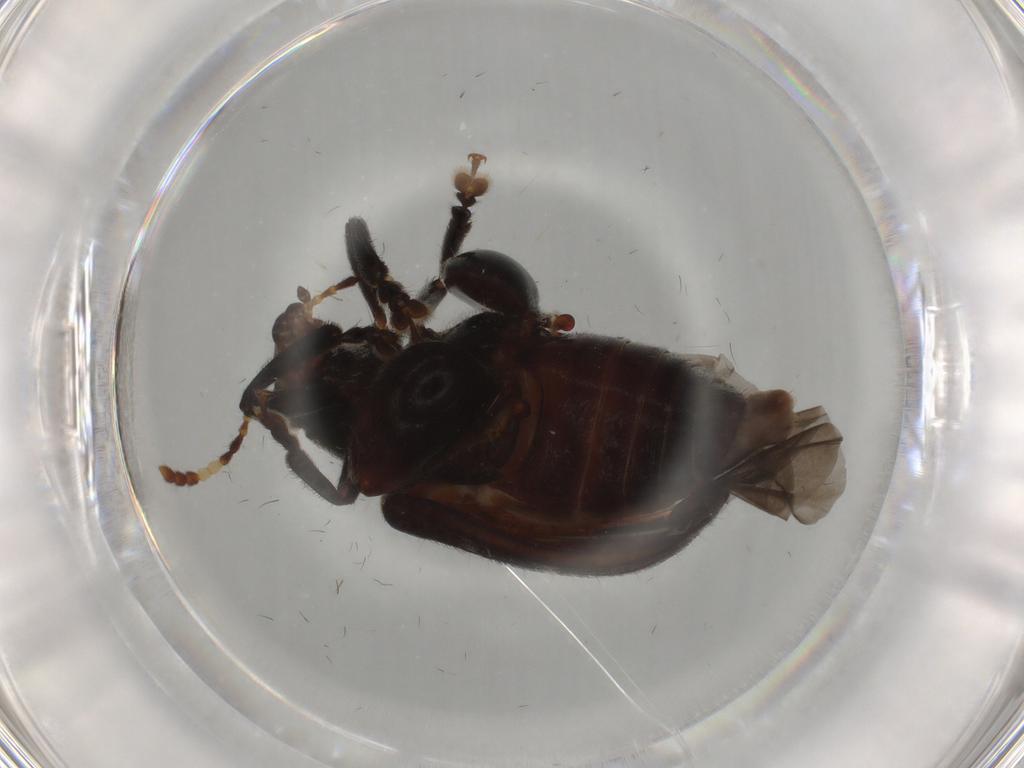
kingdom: Animalia
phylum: Arthropoda
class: Insecta
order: Coleoptera
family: Chrysomelidae
